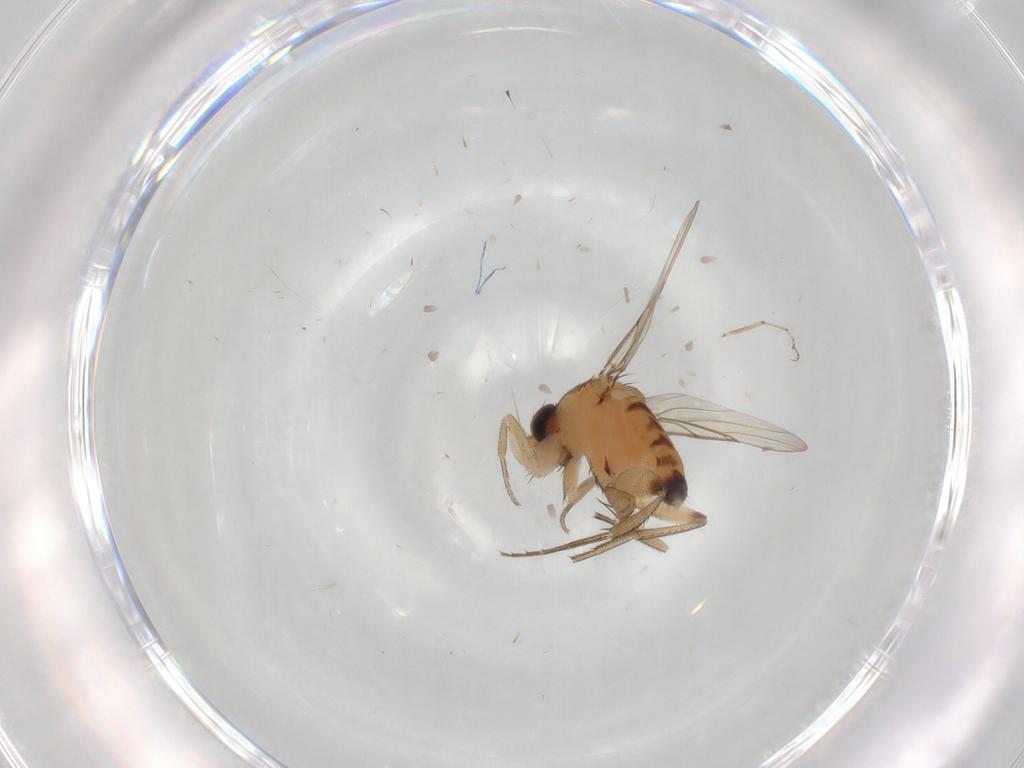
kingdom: Animalia
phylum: Arthropoda
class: Insecta
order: Diptera
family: Phoridae
